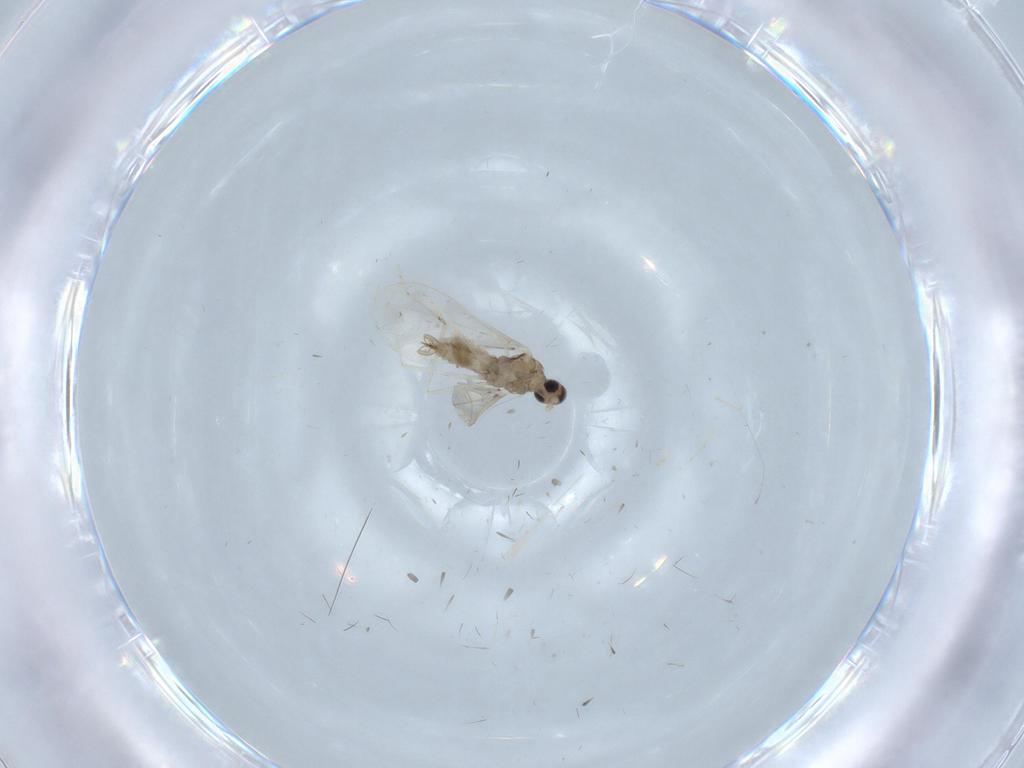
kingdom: Animalia
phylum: Arthropoda
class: Insecta
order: Diptera
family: Cecidomyiidae
